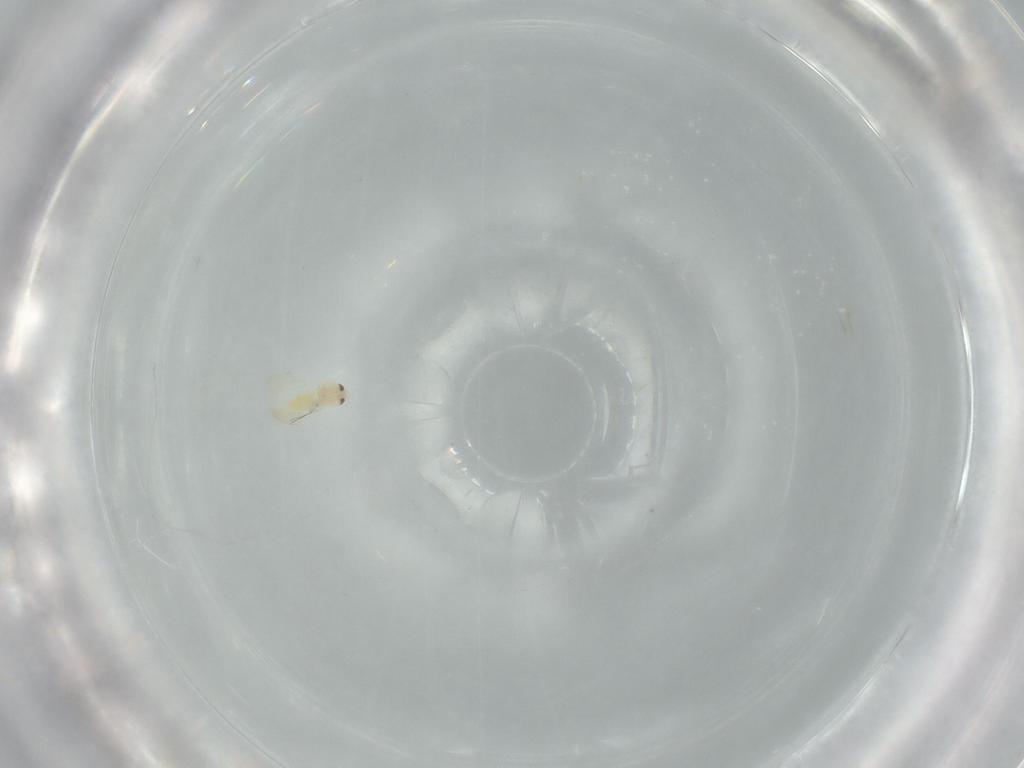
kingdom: Animalia
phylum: Arthropoda
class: Insecta
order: Hemiptera
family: Aleyrodidae
